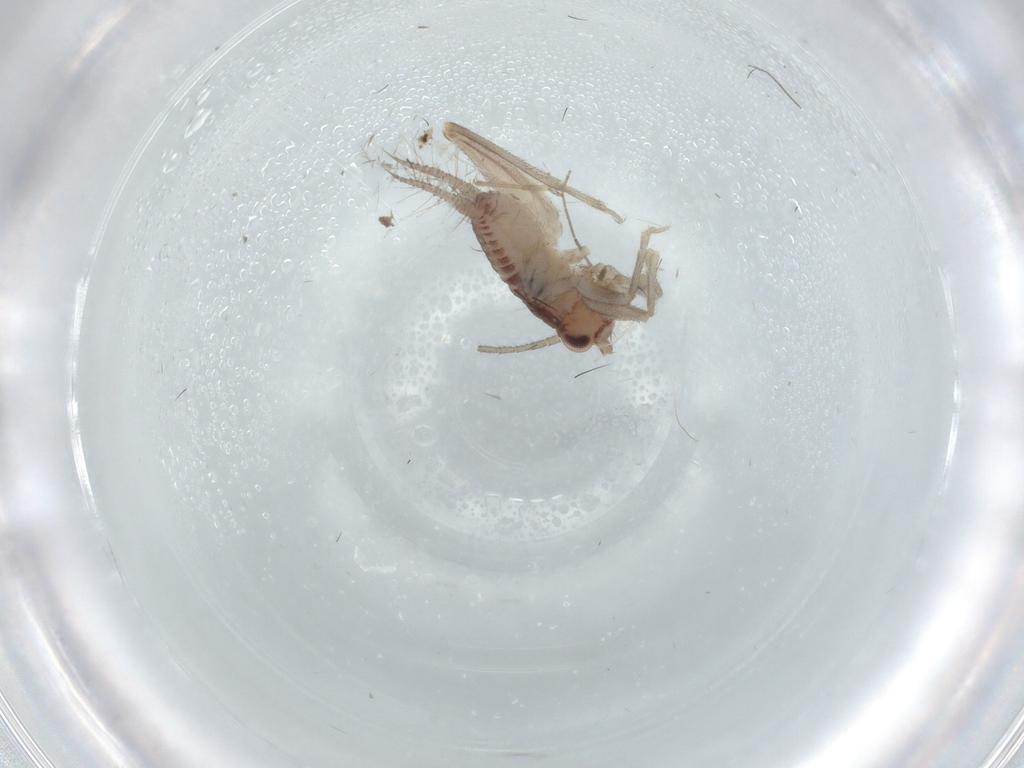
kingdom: Animalia
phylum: Arthropoda
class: Insecta
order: Orthoptera
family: Trigonidiidae
